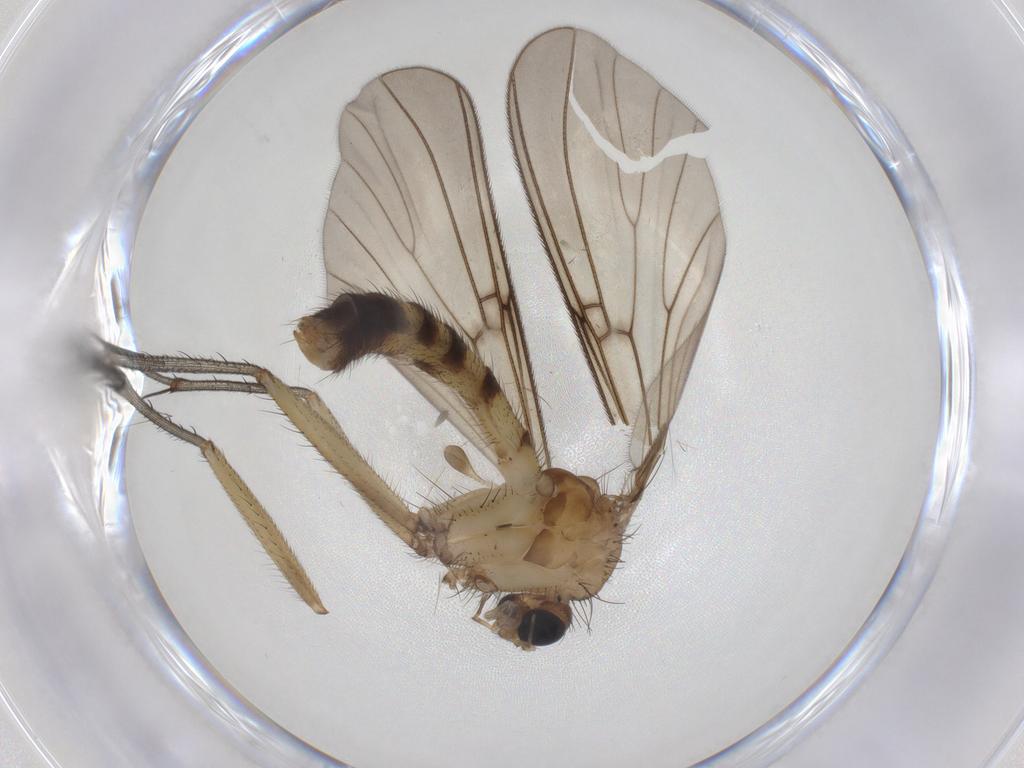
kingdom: Animalia
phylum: Arthropoda
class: Insecta
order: Diptera
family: Mycetophilidae
